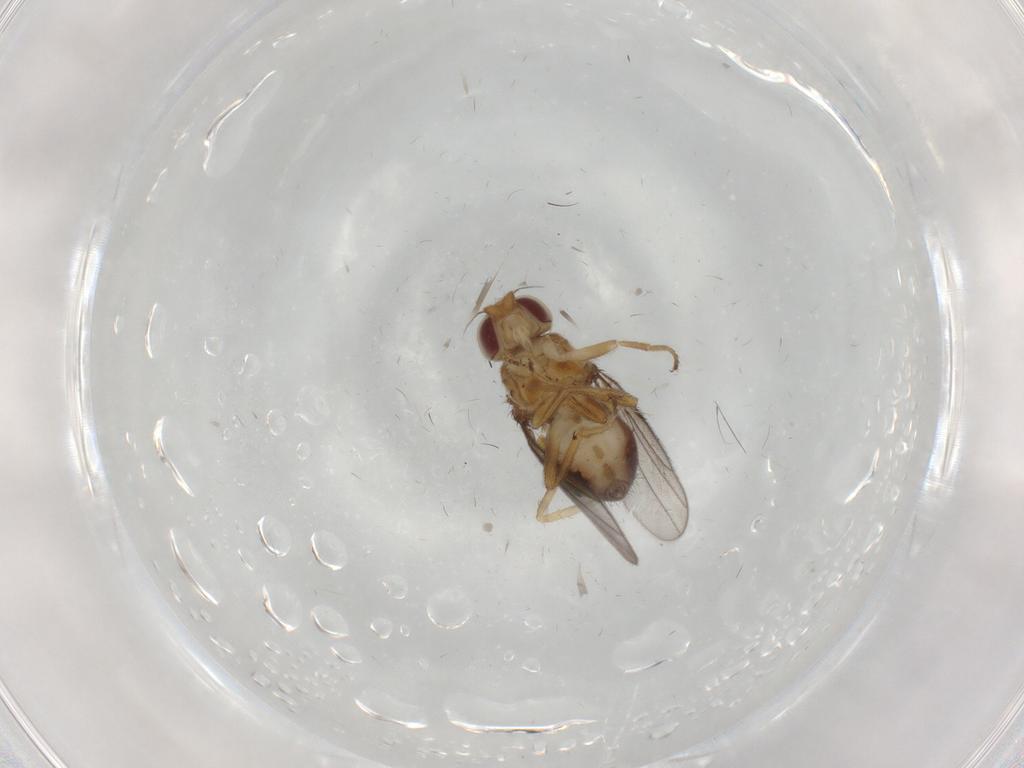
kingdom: Animalia
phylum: Arthropoda
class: Insecta
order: Diptera
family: Chloropidae
